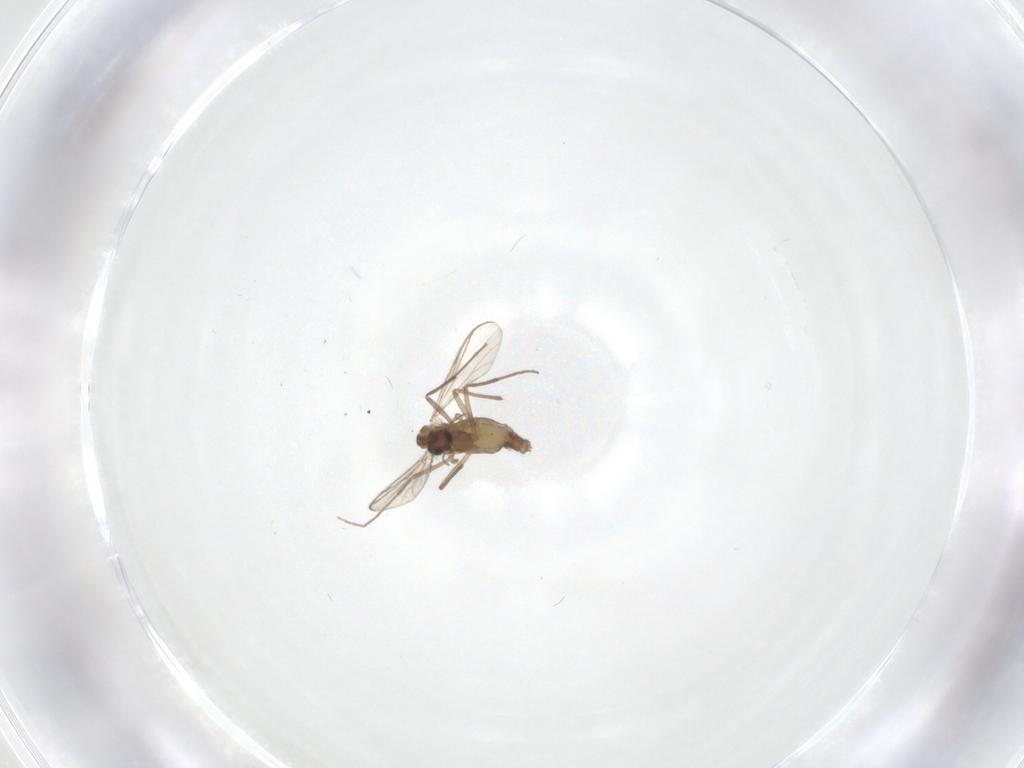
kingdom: Animalia
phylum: Arthropoda
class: Insecta
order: Diptera
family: Chironomidae
